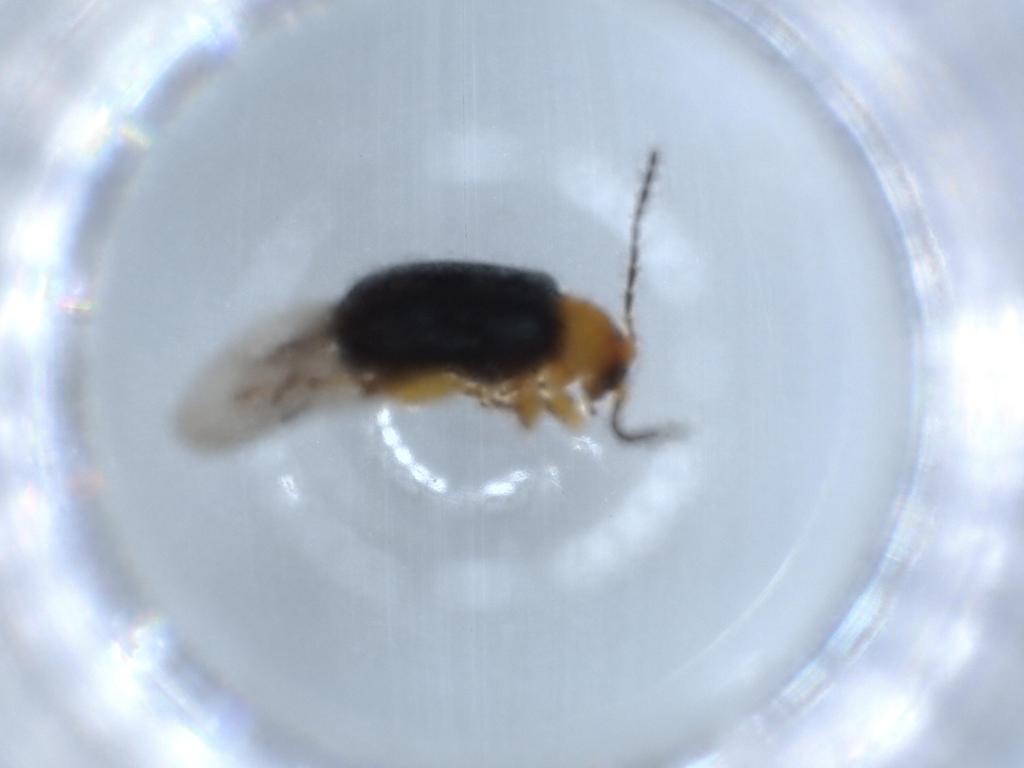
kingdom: Animalia
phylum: Arthropoda
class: Insecta
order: Coleoptera
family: Chrysomelidae
